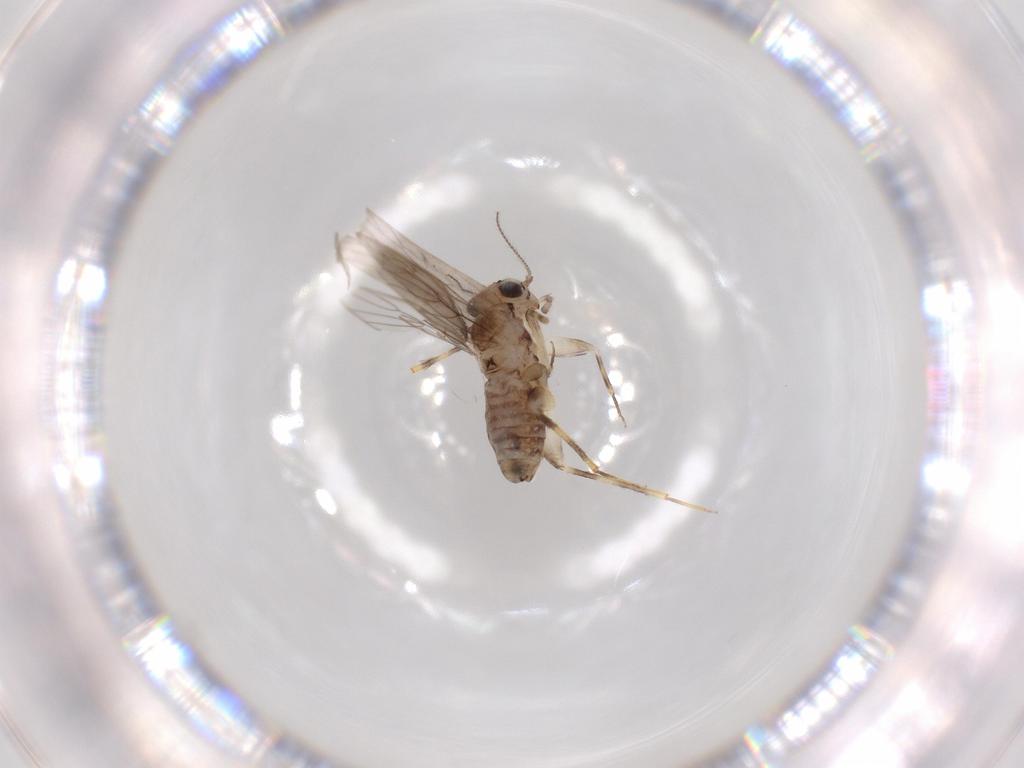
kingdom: Animalia
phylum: Arthropoda
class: Insecta
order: Psocodea
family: Lepidopsocidae
